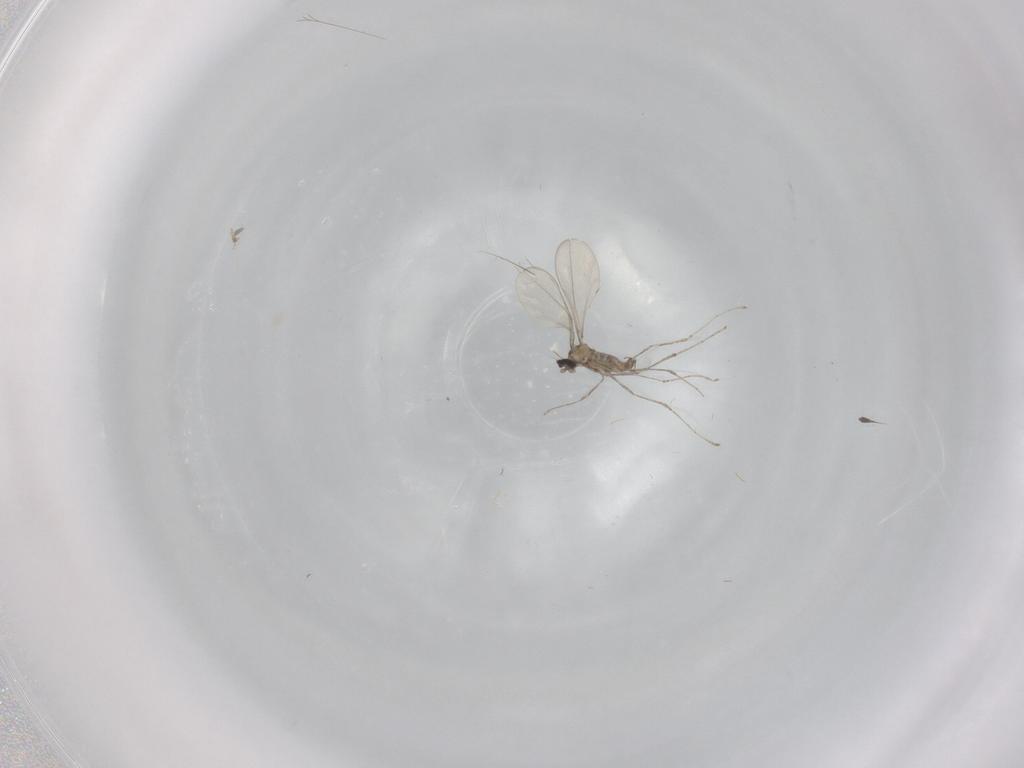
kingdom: Animalia
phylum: Arthropoda
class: Insecta
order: Diptera
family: Cecidomyiidae
